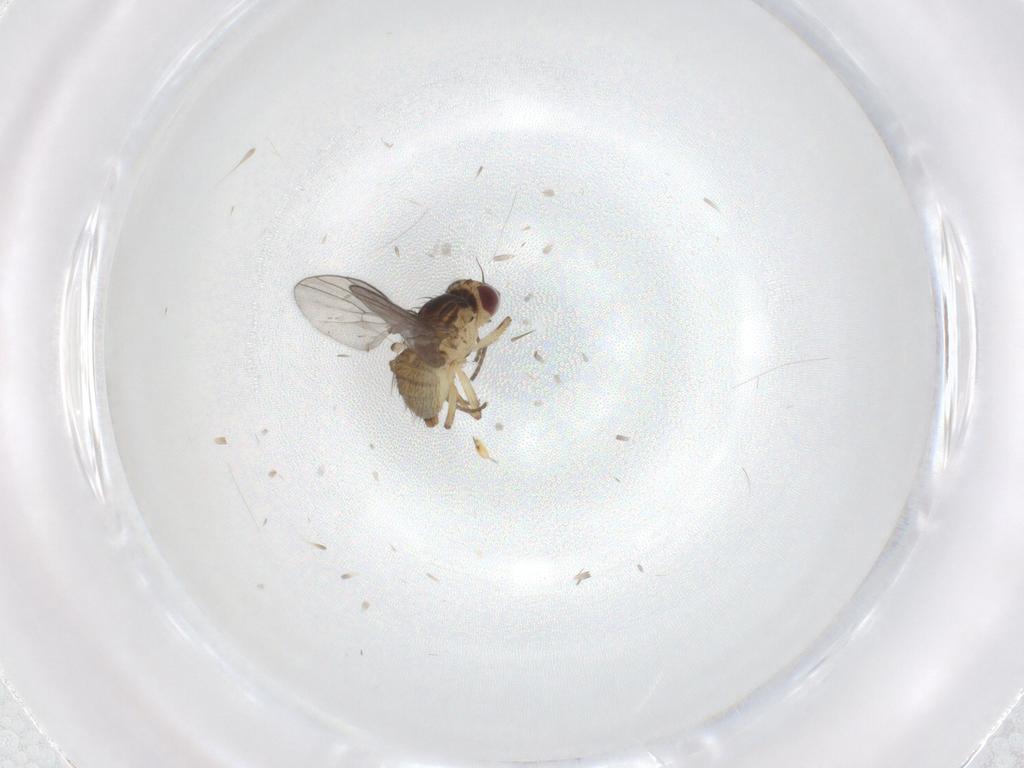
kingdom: Animalia
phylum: Arthropoda
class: Insecta
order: Diptera
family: Agromyzidae
